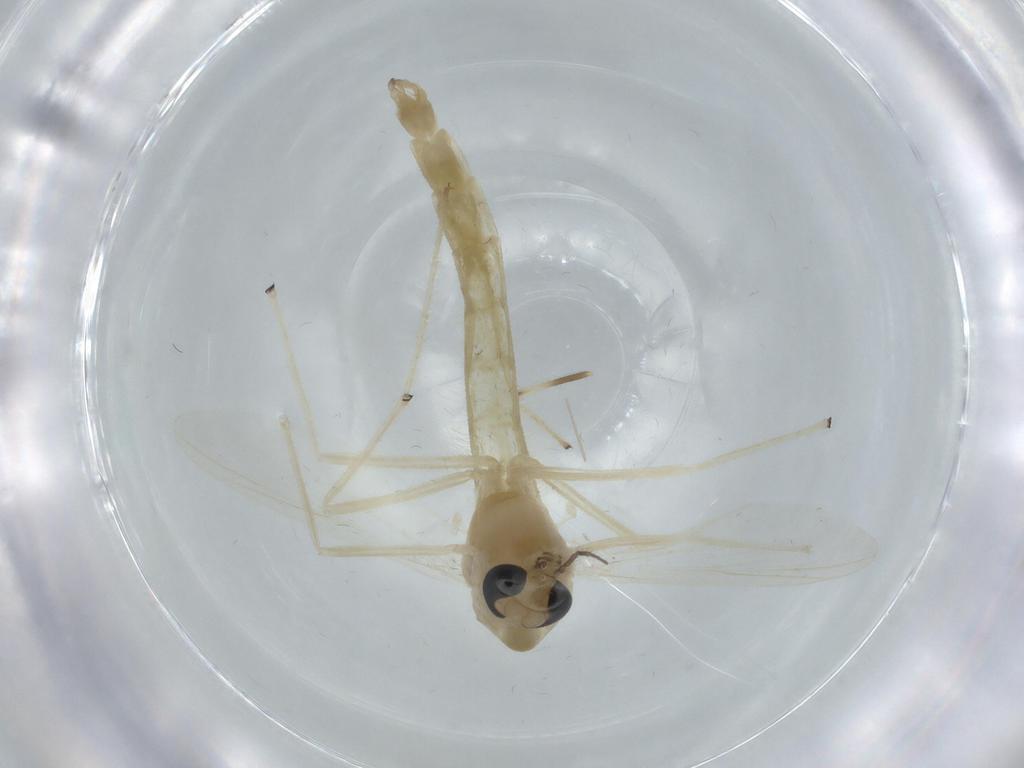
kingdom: Animalia
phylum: Arthropoda
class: Insecta
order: Diptera
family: Chironomidae
